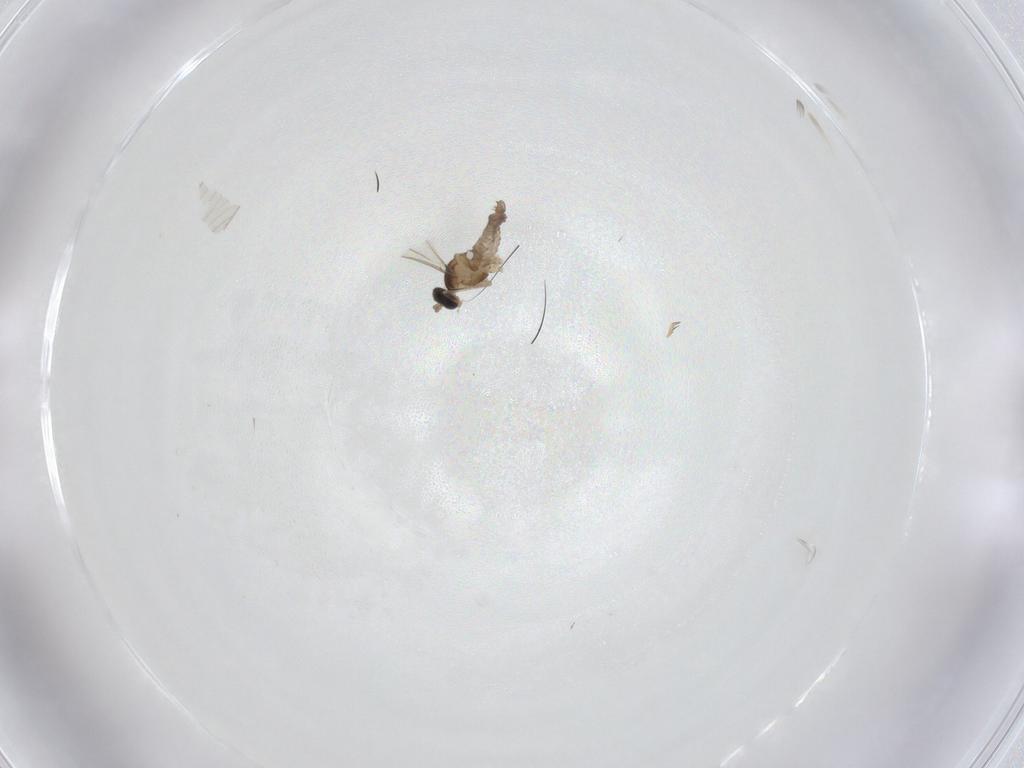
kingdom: Animalia
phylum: Arthropoda
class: Insecta
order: Diptera
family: Cecidomyiidae
